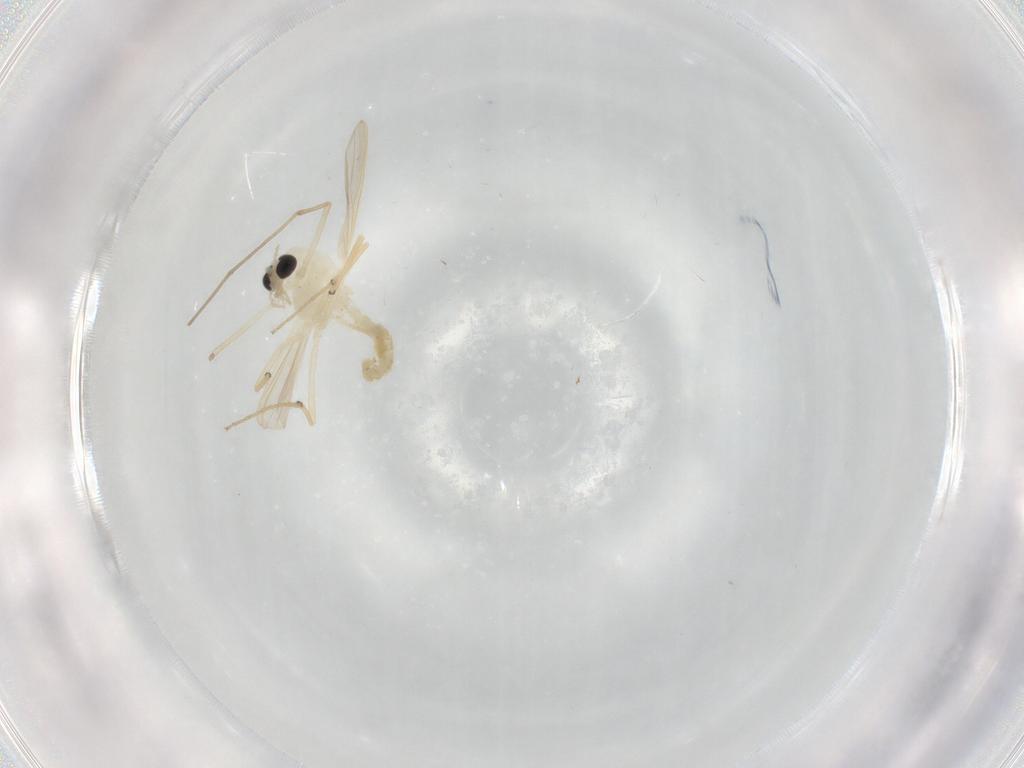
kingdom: Animalia
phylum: Arthropoda
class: Insecta
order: Diptera
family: Chironomidae
